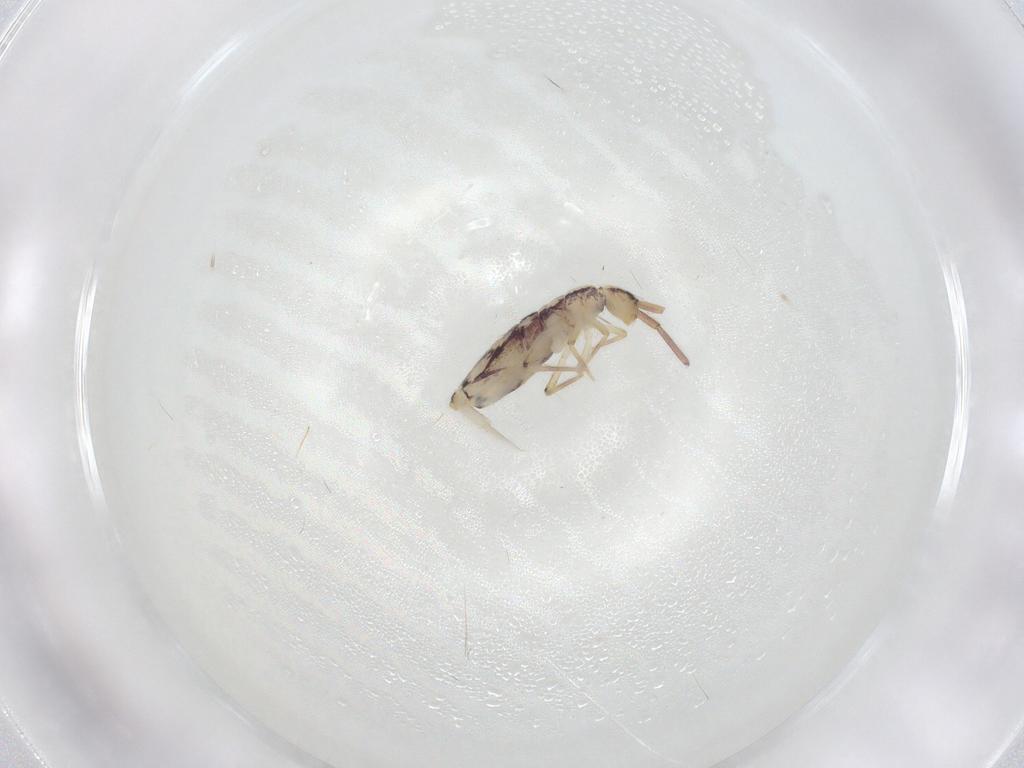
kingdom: Animalia
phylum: Arthropoda
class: Collembola
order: Entomobryomorpha
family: Entomobryidae
